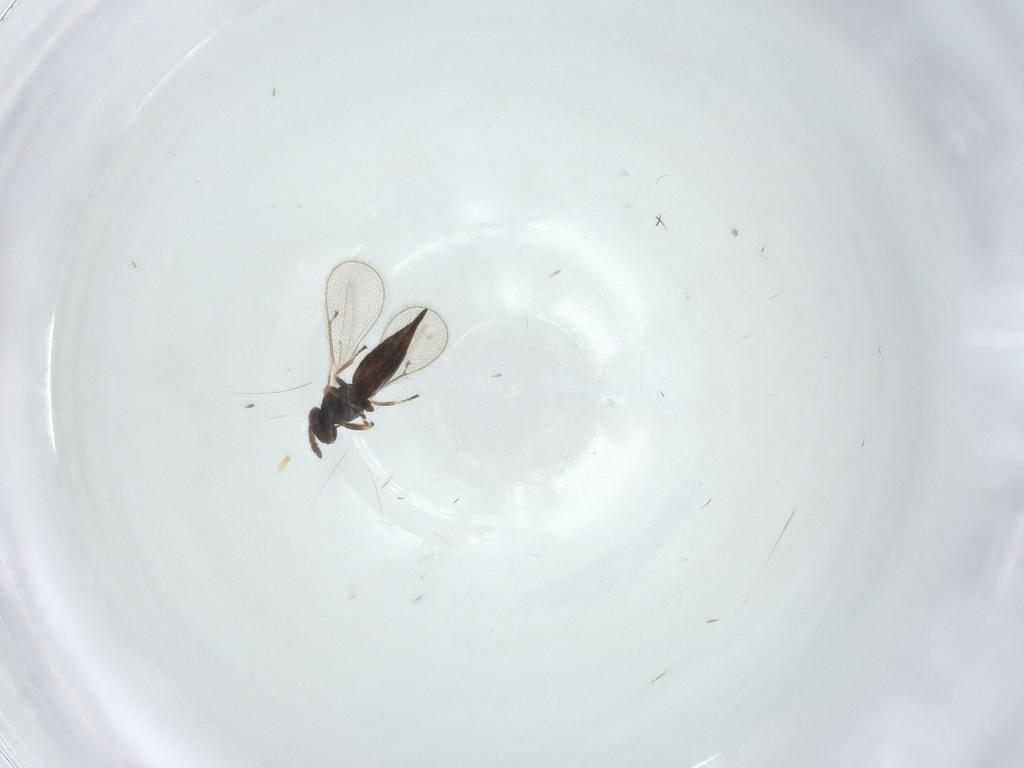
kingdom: Animalia
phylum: Arthropoda
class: Insecta
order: Hymenoptera
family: Eulophidae
